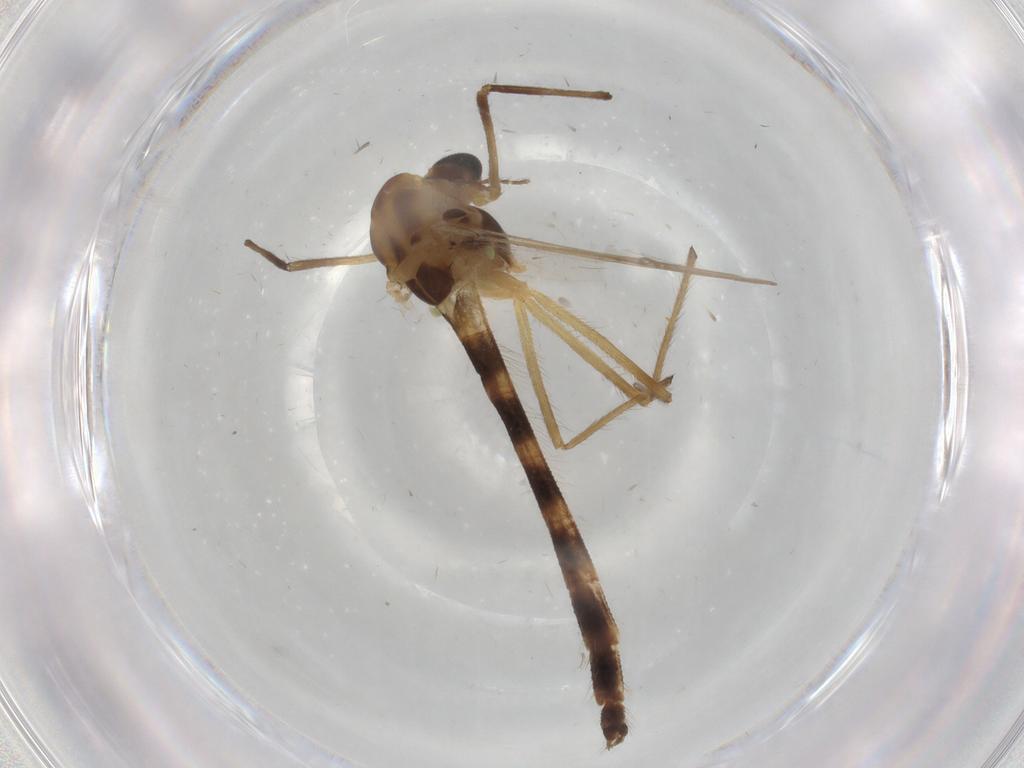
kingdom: Animalia
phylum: Arthropoda
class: Insecta
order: Diptera
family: Chironomidae
